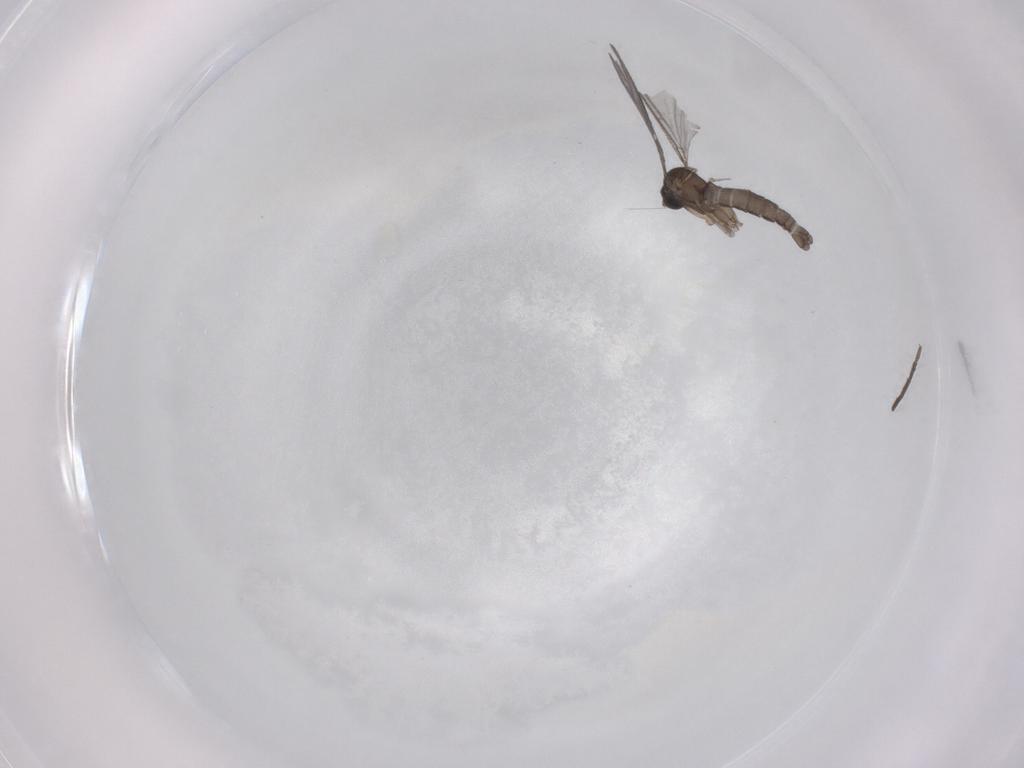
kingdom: Animalia
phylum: Arthropoda
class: Insecta
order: Diptera
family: Sciaridae
